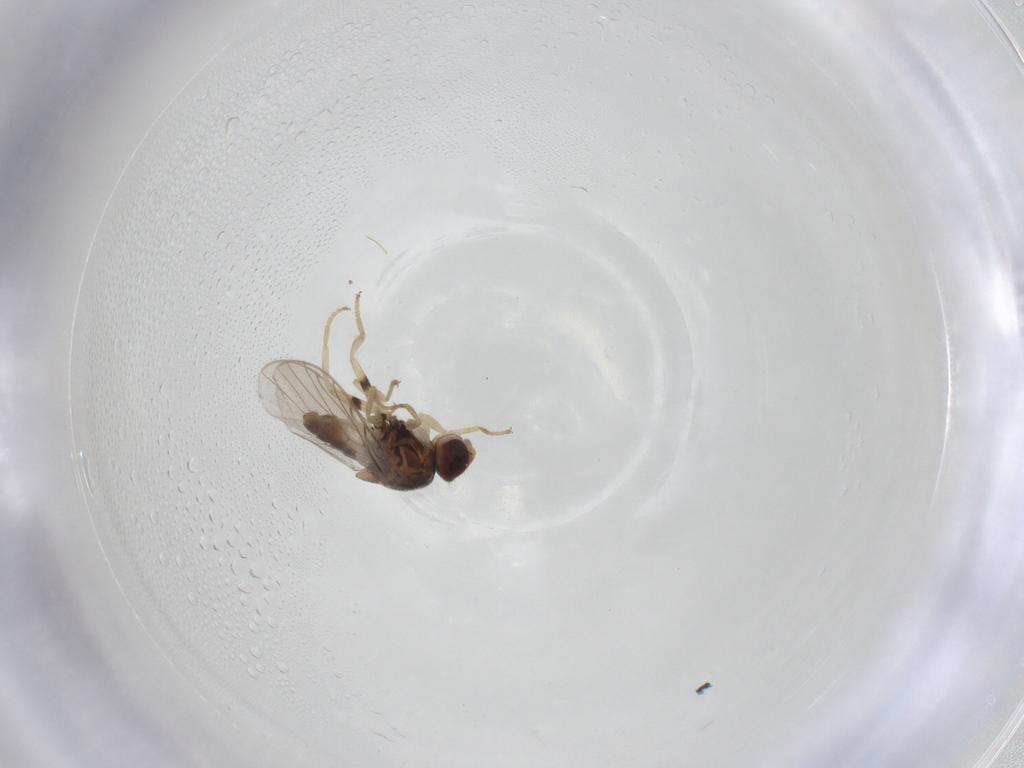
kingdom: Animalia
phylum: Arthropoda
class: Insecta
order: Diptera
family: Chloropidae
